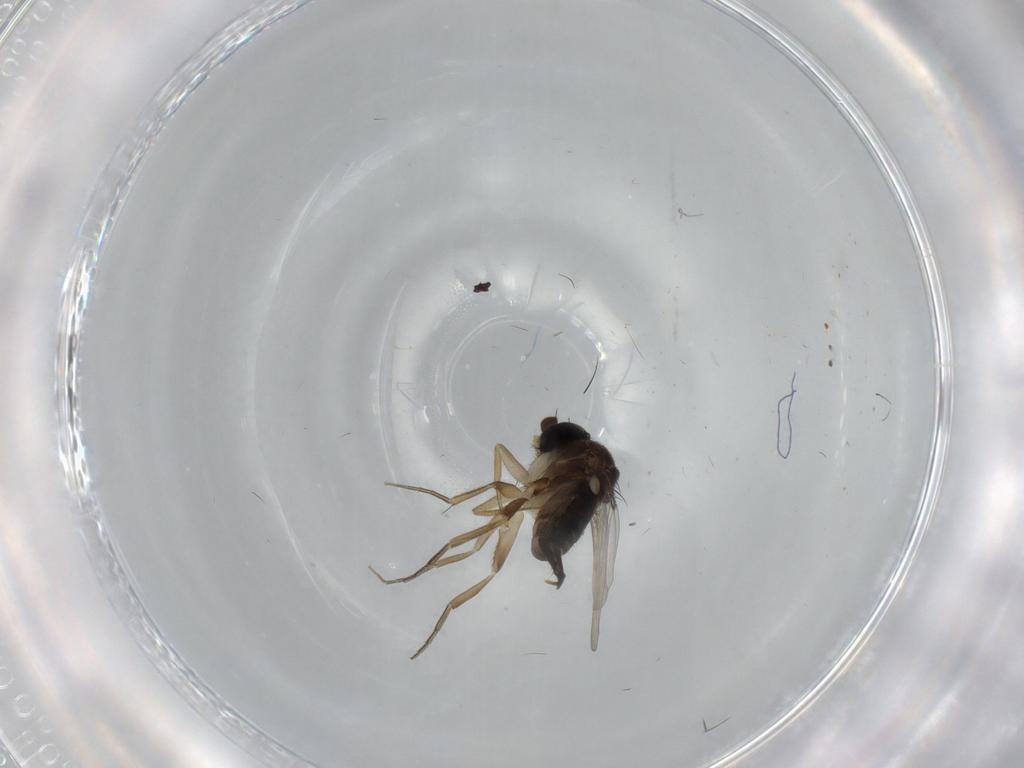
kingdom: Animalia
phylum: Arthropoda
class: Insecta
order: Diptera
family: Phoridae
